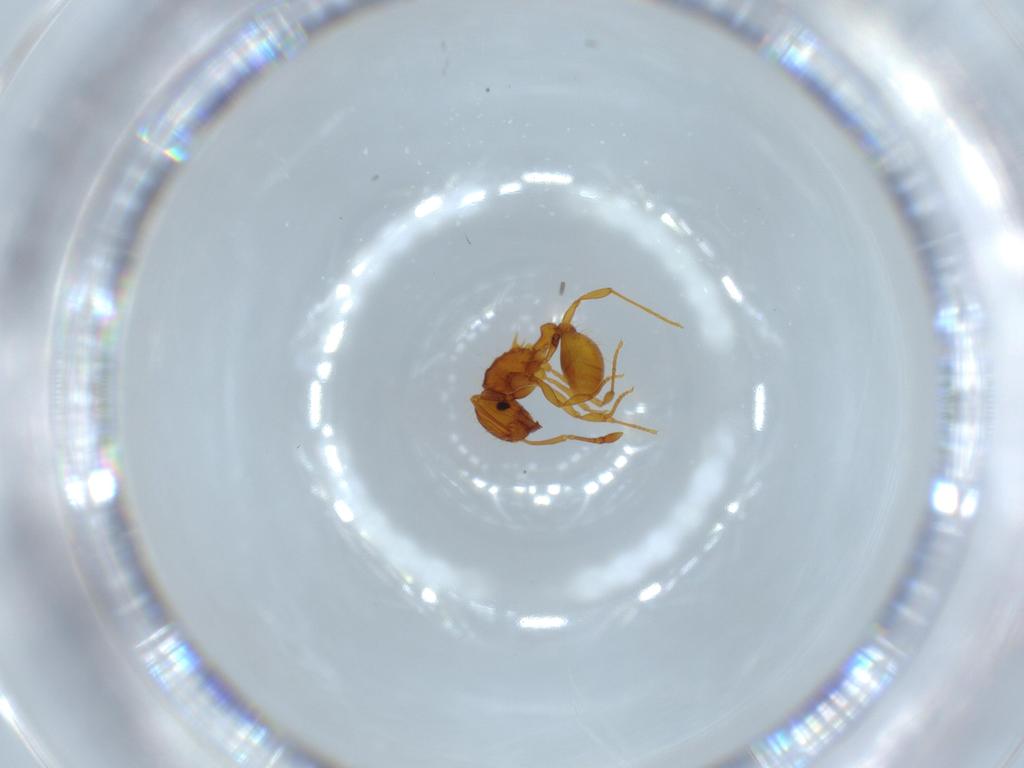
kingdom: Animalia
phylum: Arthropoda
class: Insecta
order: Hymenoptera
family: Formicidae
